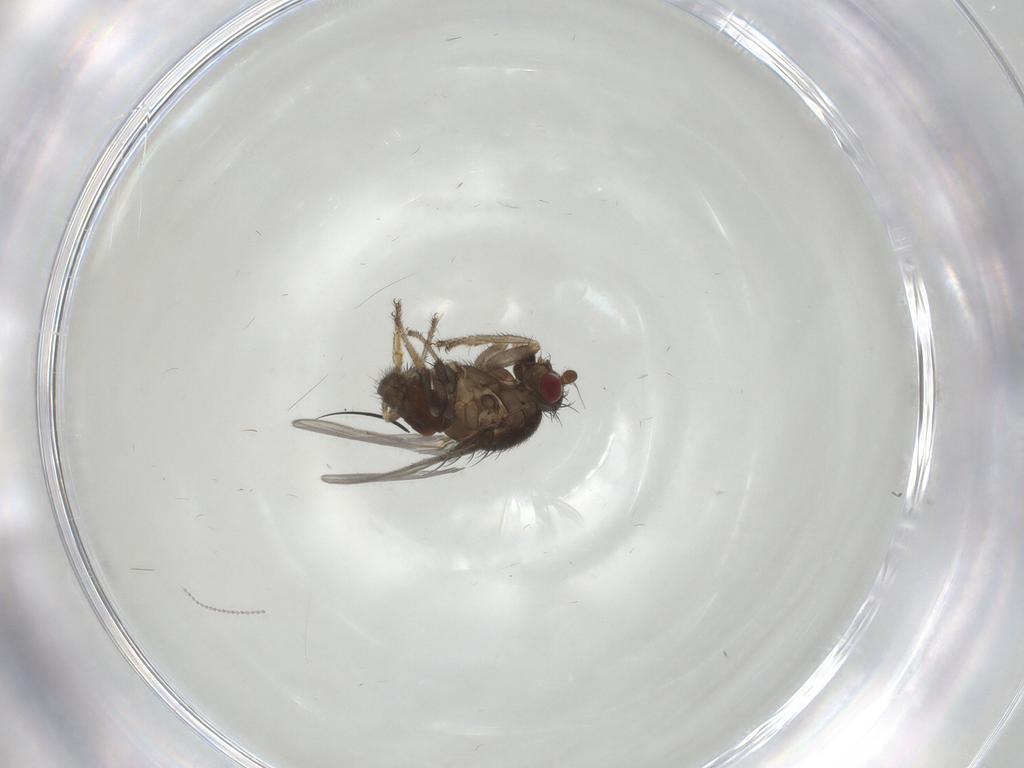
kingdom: Animalia
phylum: Arthropoda
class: Insecta
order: Diptera
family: Sphaeroceridae
